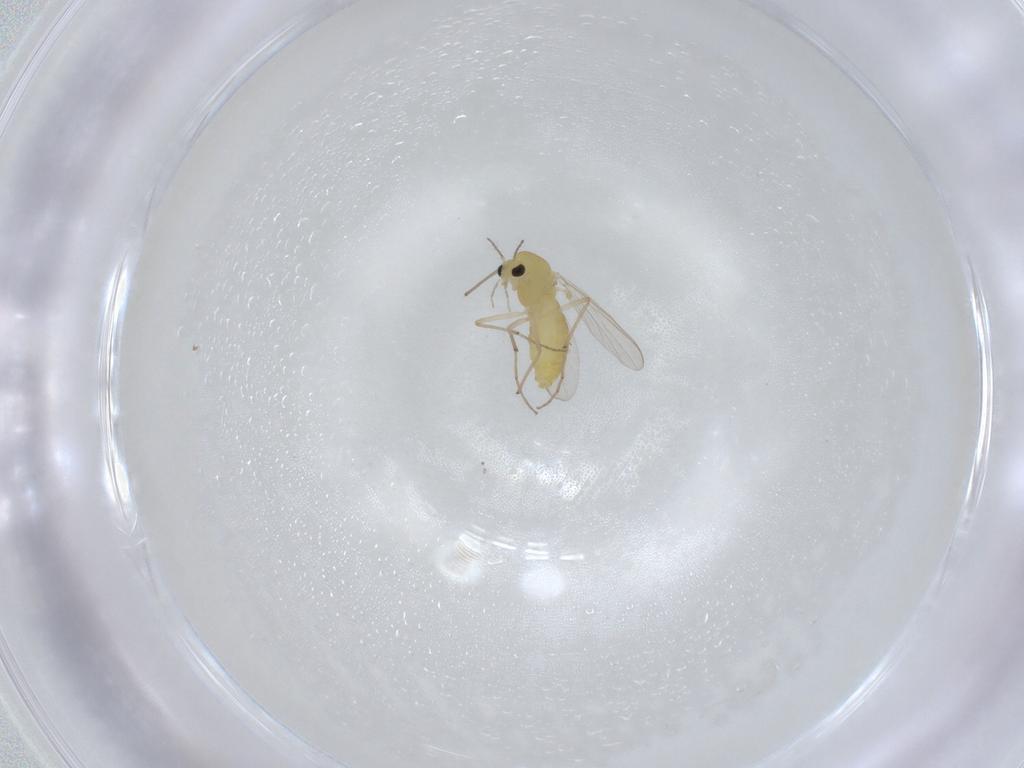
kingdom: Animalia
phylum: Arthropoda
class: Insecta
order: Diptera
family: Chironomidae
